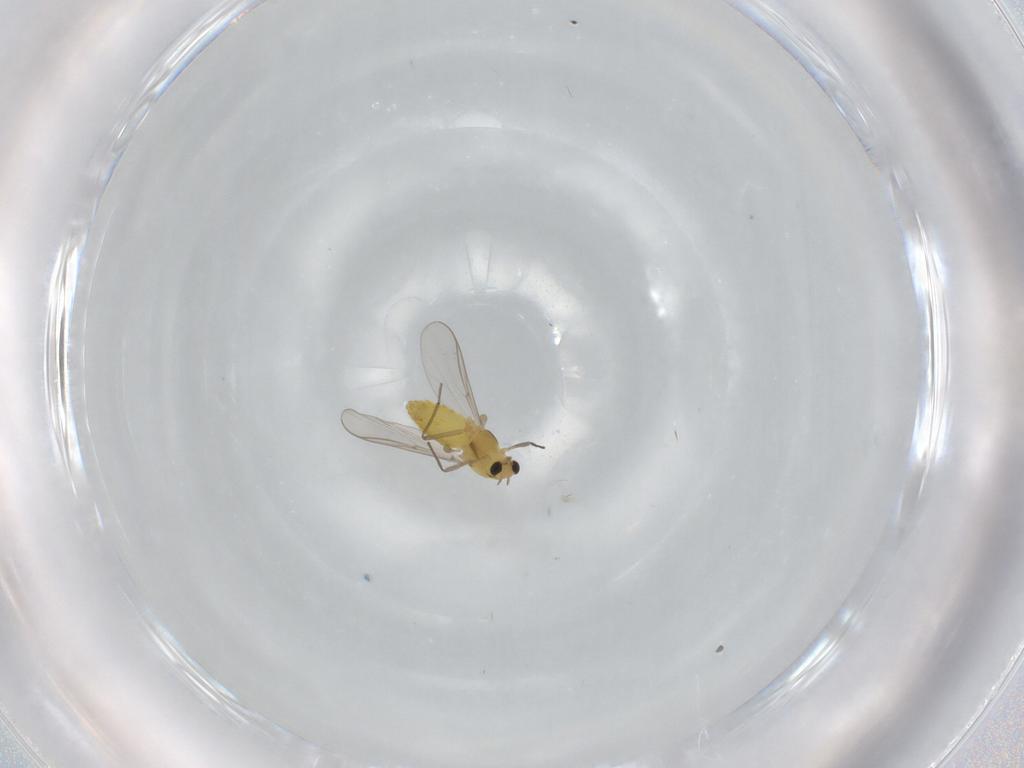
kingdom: Animalia
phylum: Arthropoda
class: Insecta
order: Diptera
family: Chironomidae
